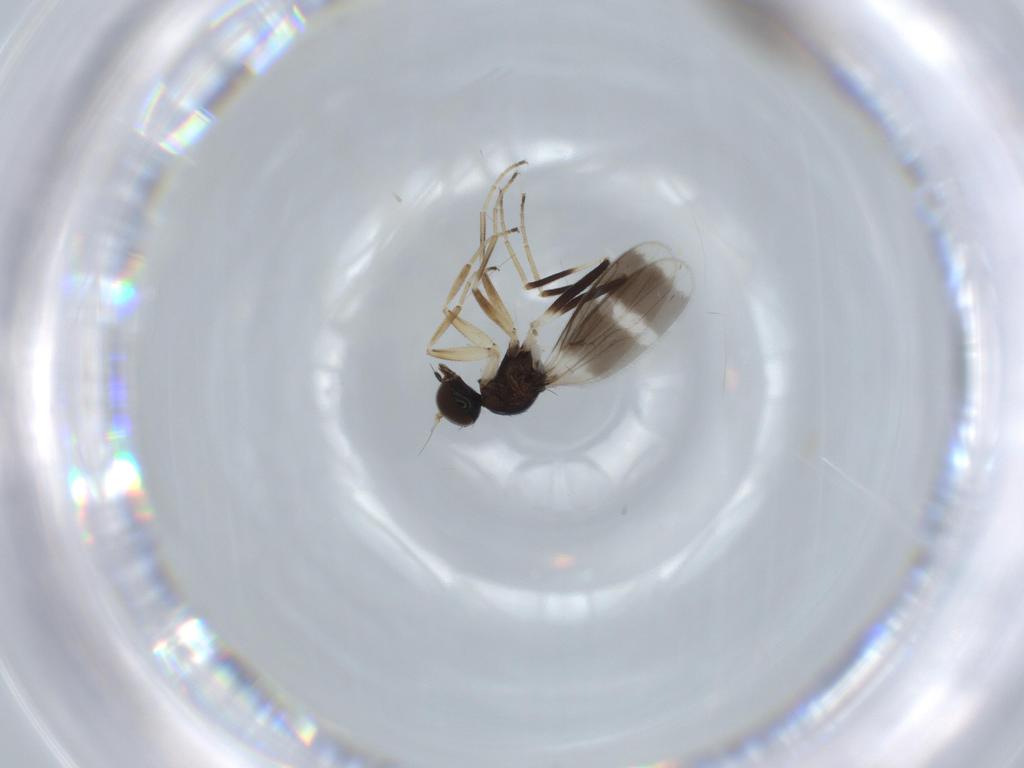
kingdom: Animalia
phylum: Arthropoda
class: Insecta
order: Diptera
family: Hybotidae
